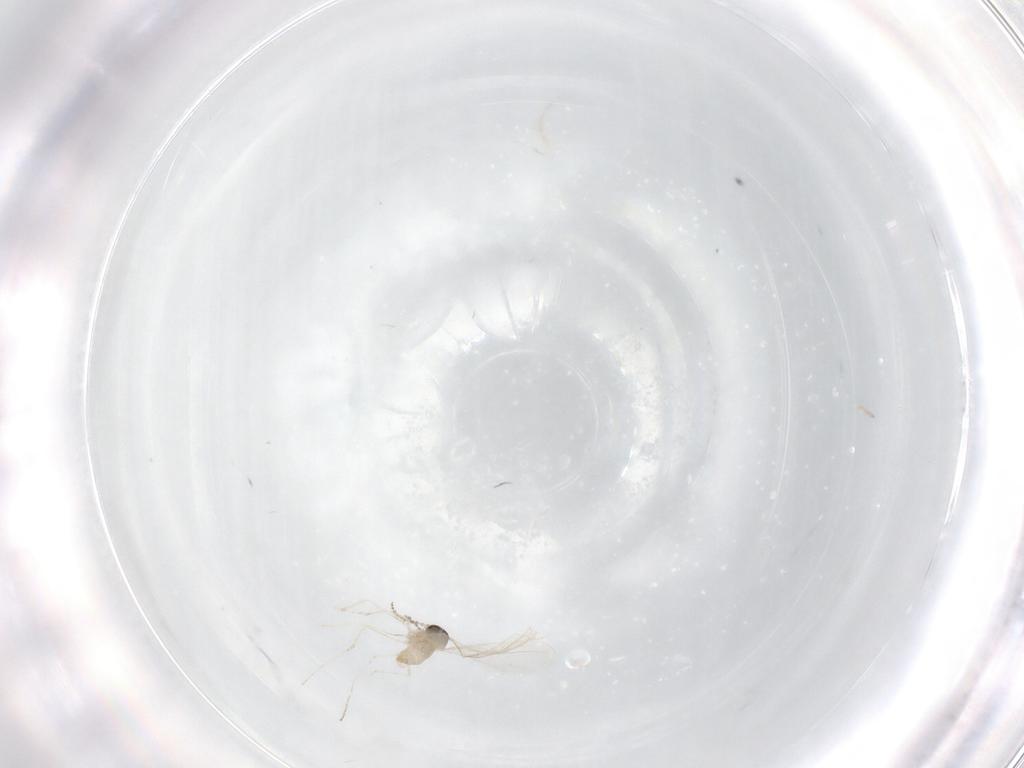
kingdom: Animalia
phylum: Arthropoda
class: Insecta
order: Diptera
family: Cecidomyiidae
